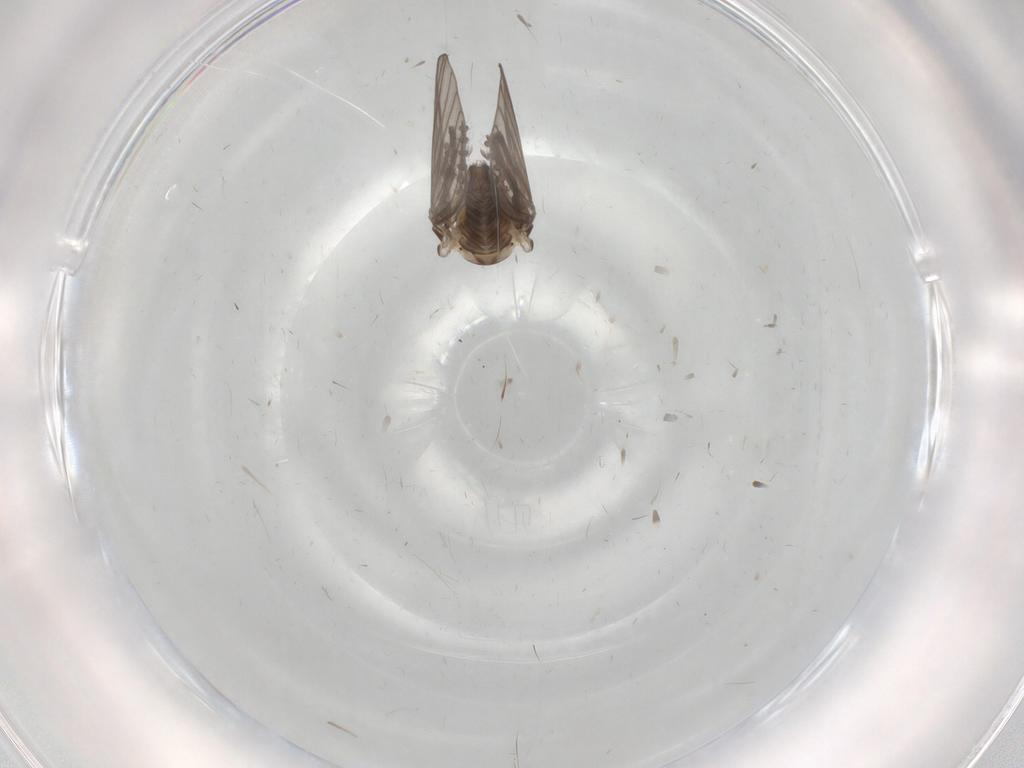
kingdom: Animalia
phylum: Arthropoda
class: Insecta
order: Diptera
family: Psychodidae
